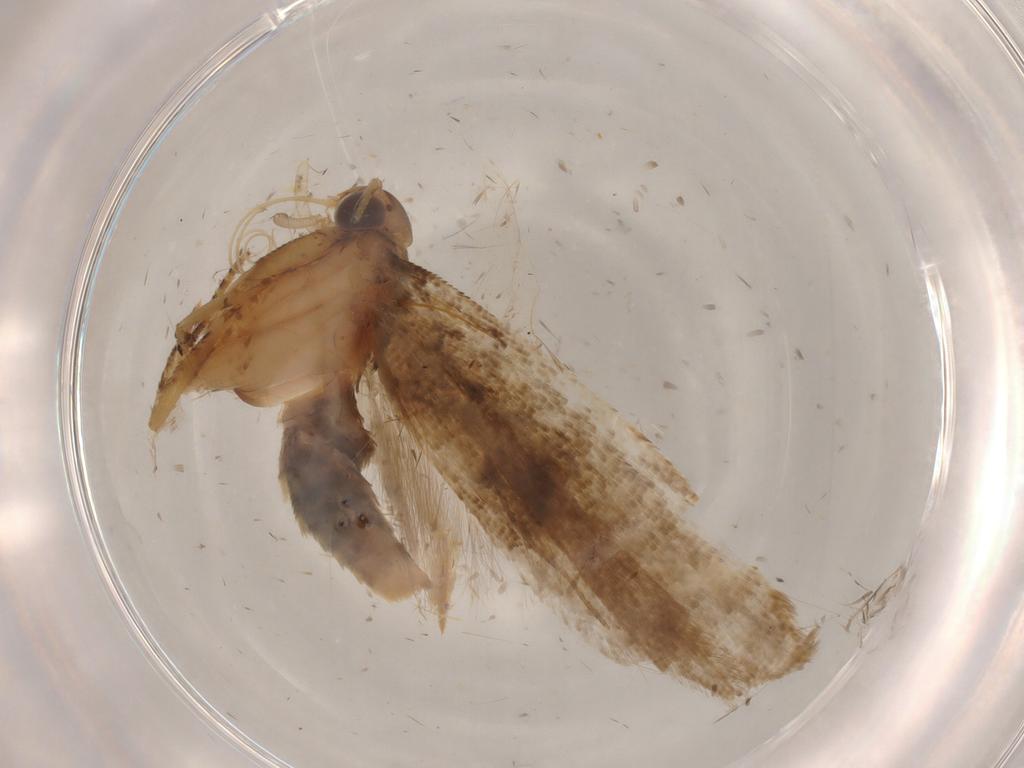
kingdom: Animalia
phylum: Arthropoda
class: Insecta
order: Lepidoptera
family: Gelechiidae
